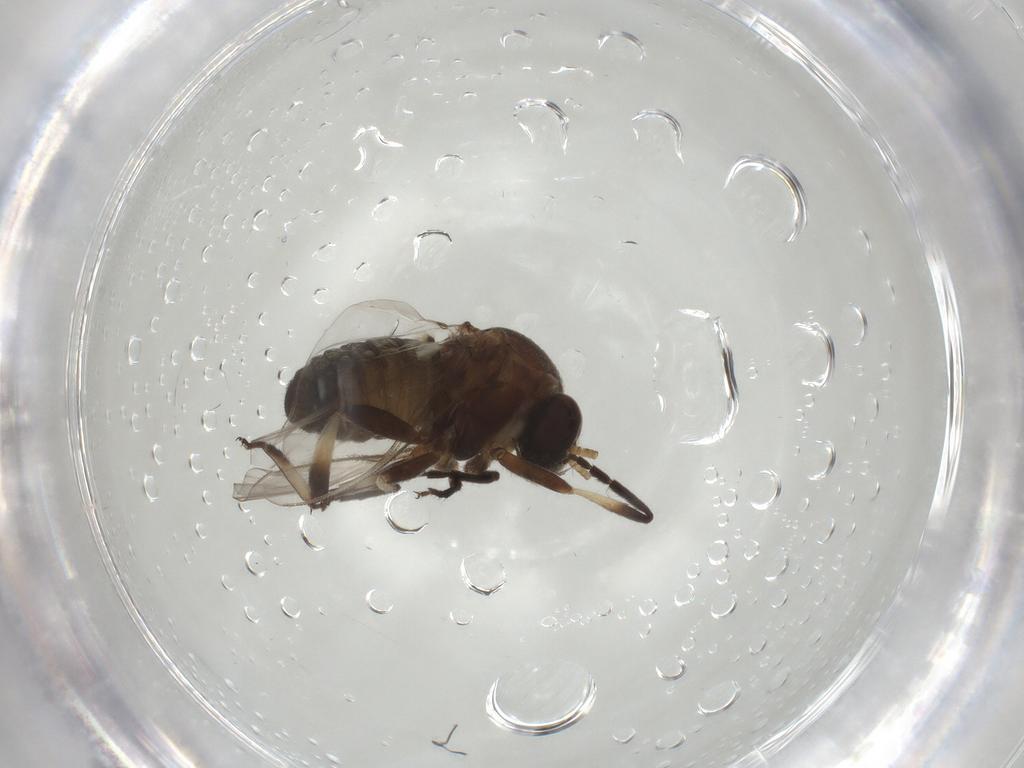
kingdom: Animalia
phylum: Arthropoda
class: Insecta
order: Diptera
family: Simuliidae
